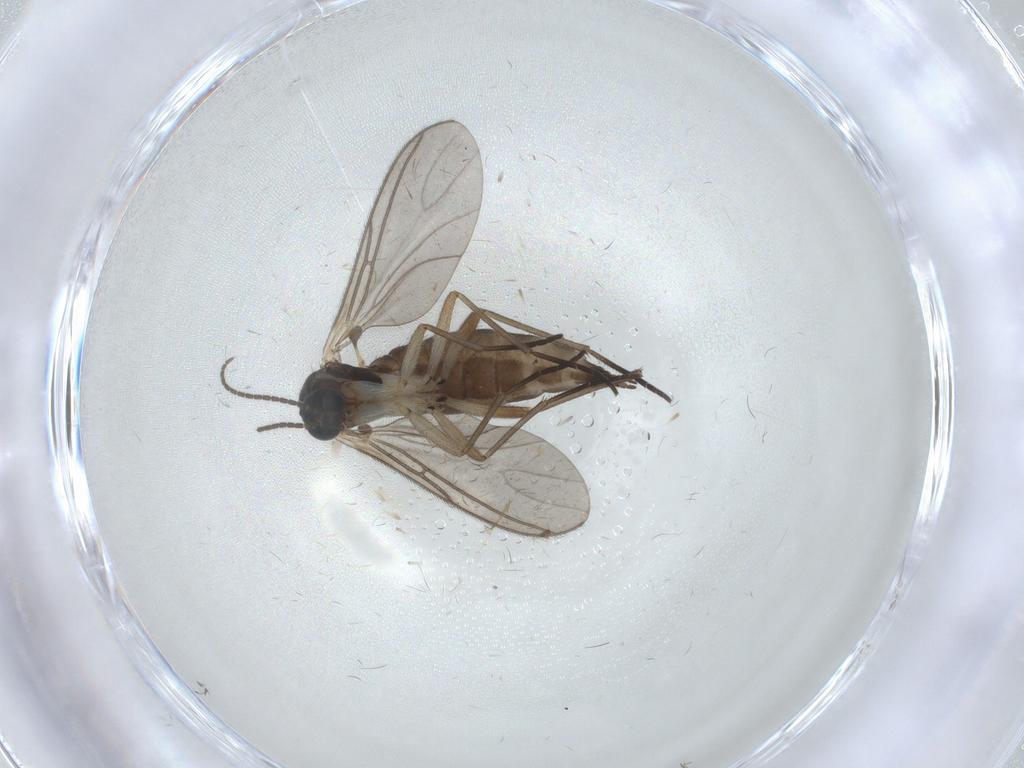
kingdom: Animalia
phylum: Arthropoda
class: Insecta
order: Diptera
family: Sciaridae
